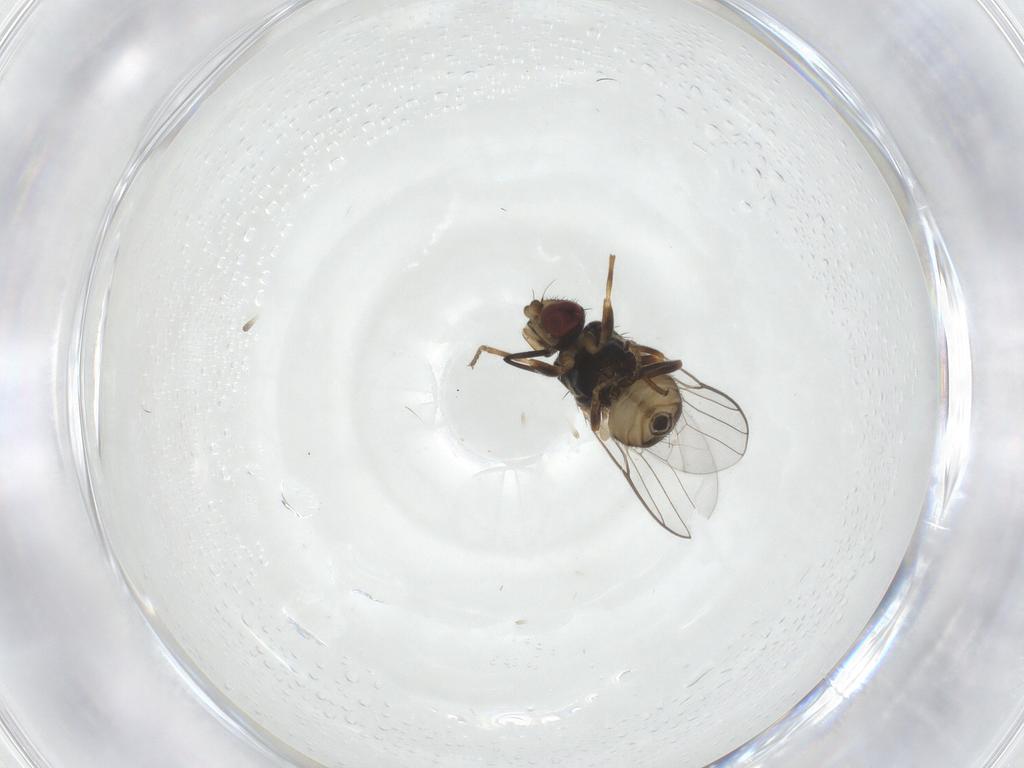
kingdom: Animalia
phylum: Arthropoda
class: Insecta
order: Diptera
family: Chloropidae
